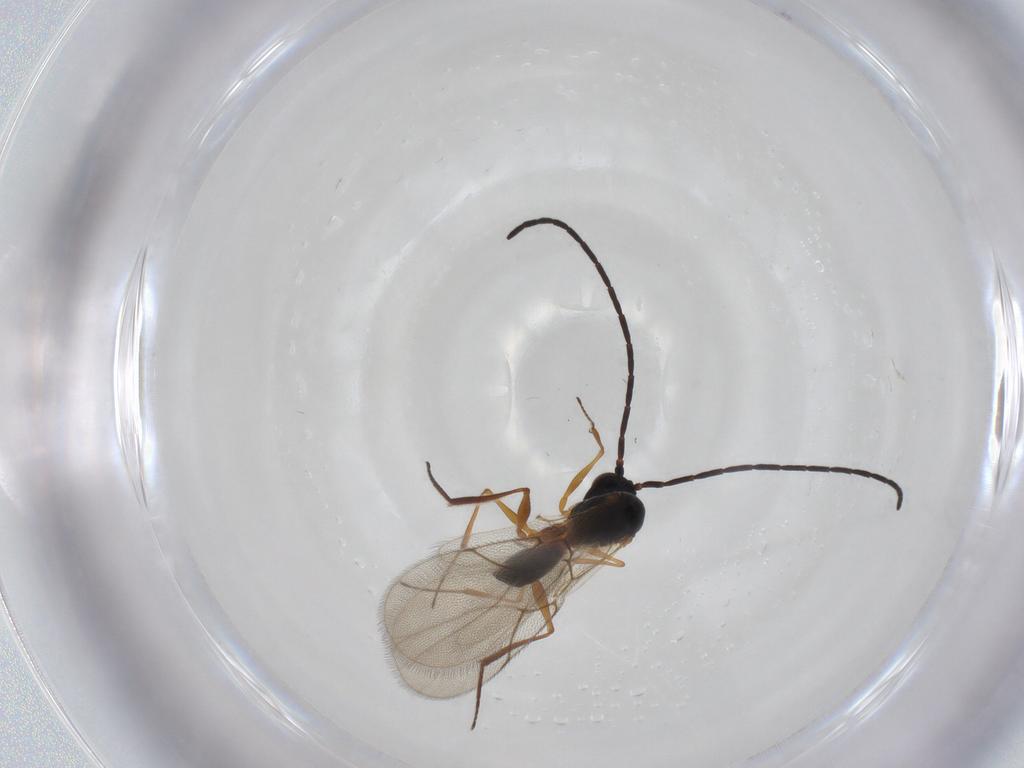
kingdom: Animalia
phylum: Arthropoda
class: Insecta
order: Hymenoptera
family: Figitidae
